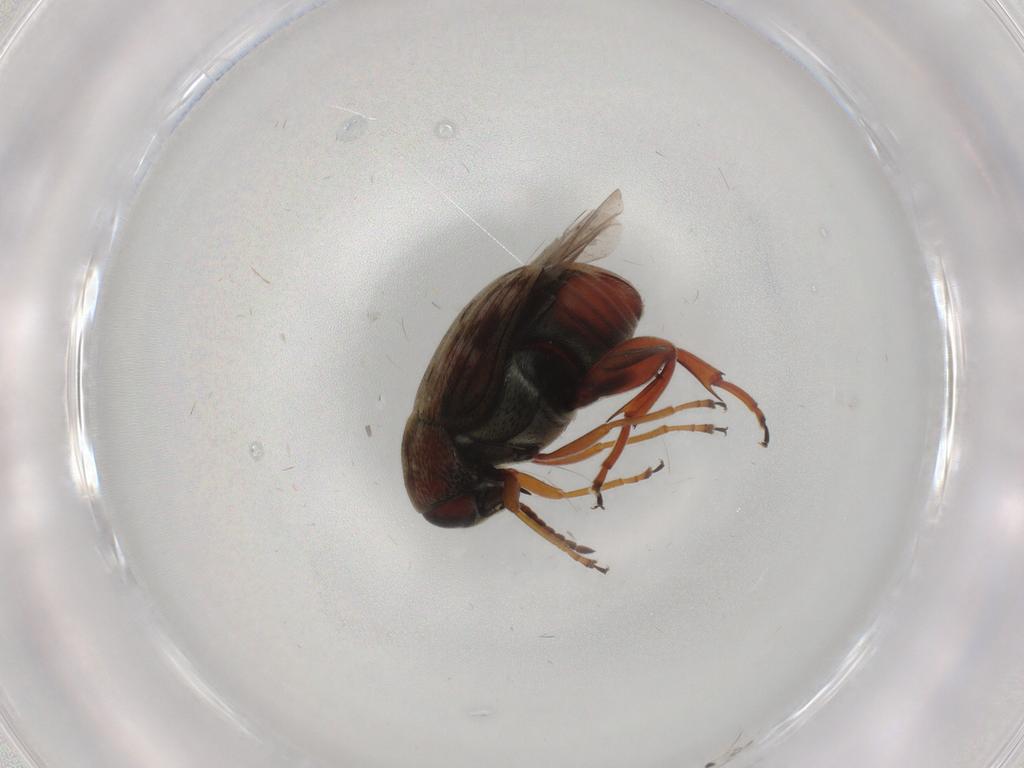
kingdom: Animalia
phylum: Arthropoda
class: Insecta
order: Coleoptera
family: Chrysomelidae
